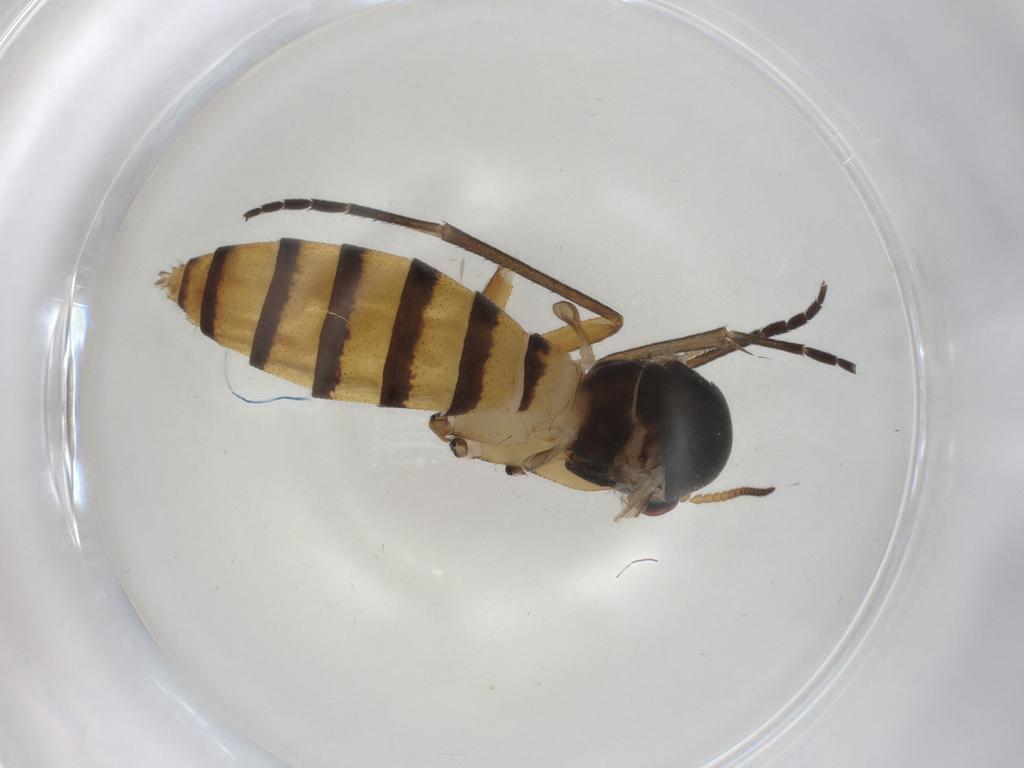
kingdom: Animalia
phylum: Arthropoda
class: Insecta
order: Diptera
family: Mycetophilidae
